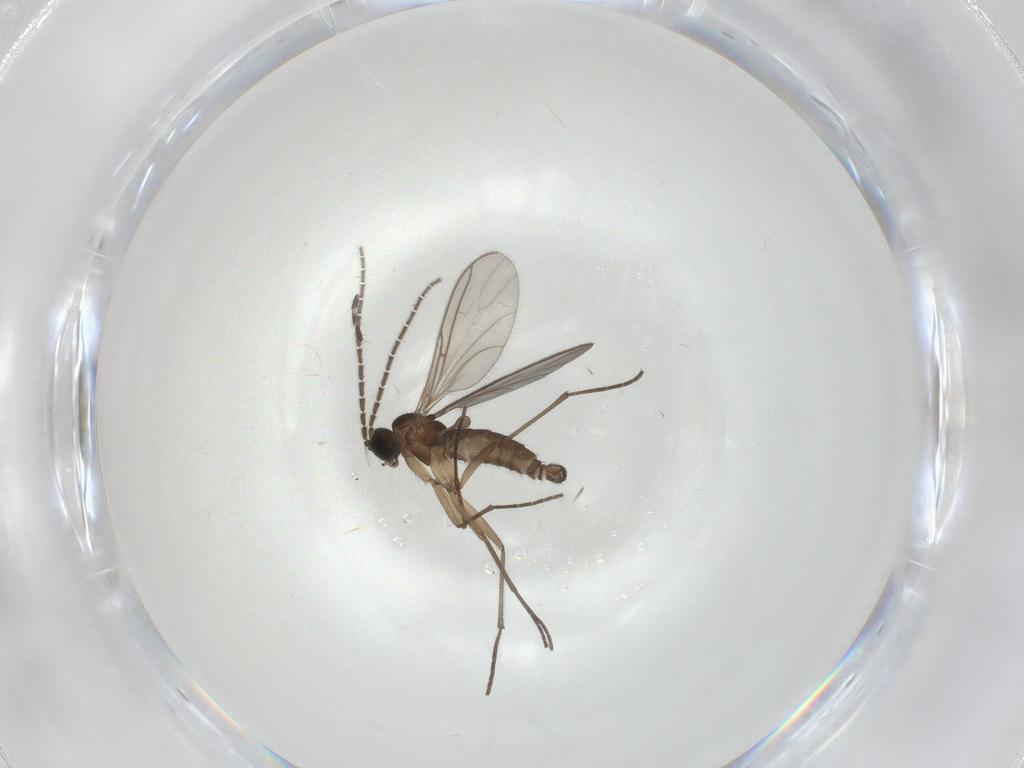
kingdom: Animalia
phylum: Arthropoda
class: Insecta
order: Diptera
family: Limoniidae
